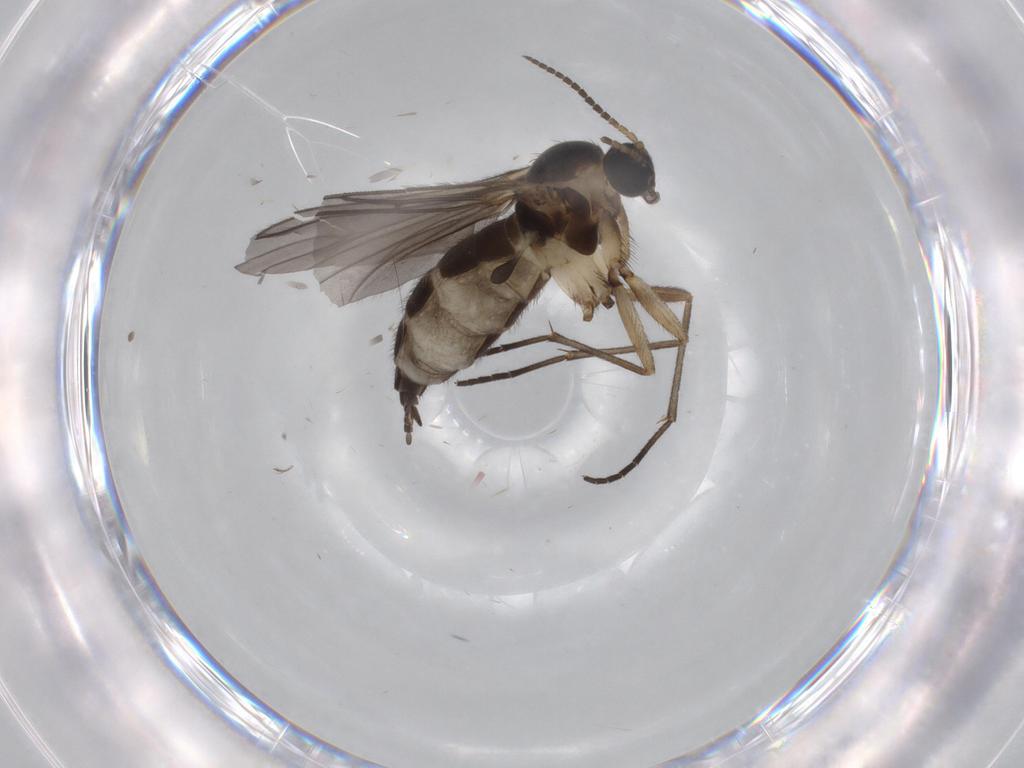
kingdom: Animalia
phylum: Arthropoda
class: Insecta
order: Diptera
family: Sciaridae
